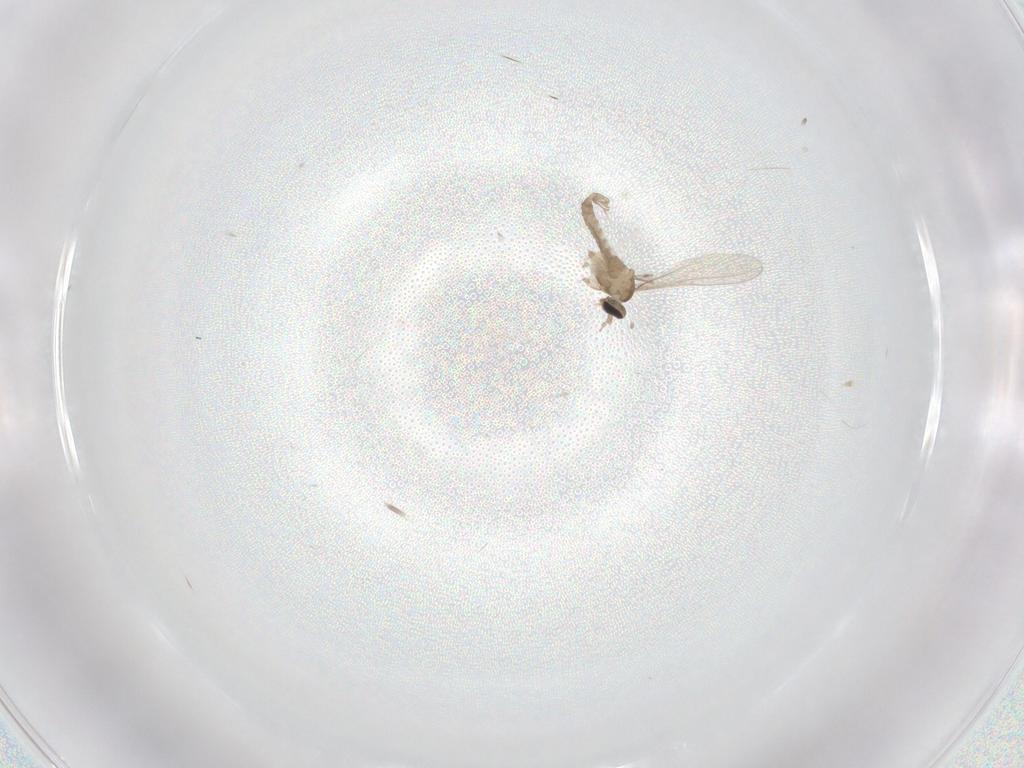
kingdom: Animalia
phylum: Arthropoda
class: Insecta
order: Diptera
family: Cecidomyiidae
